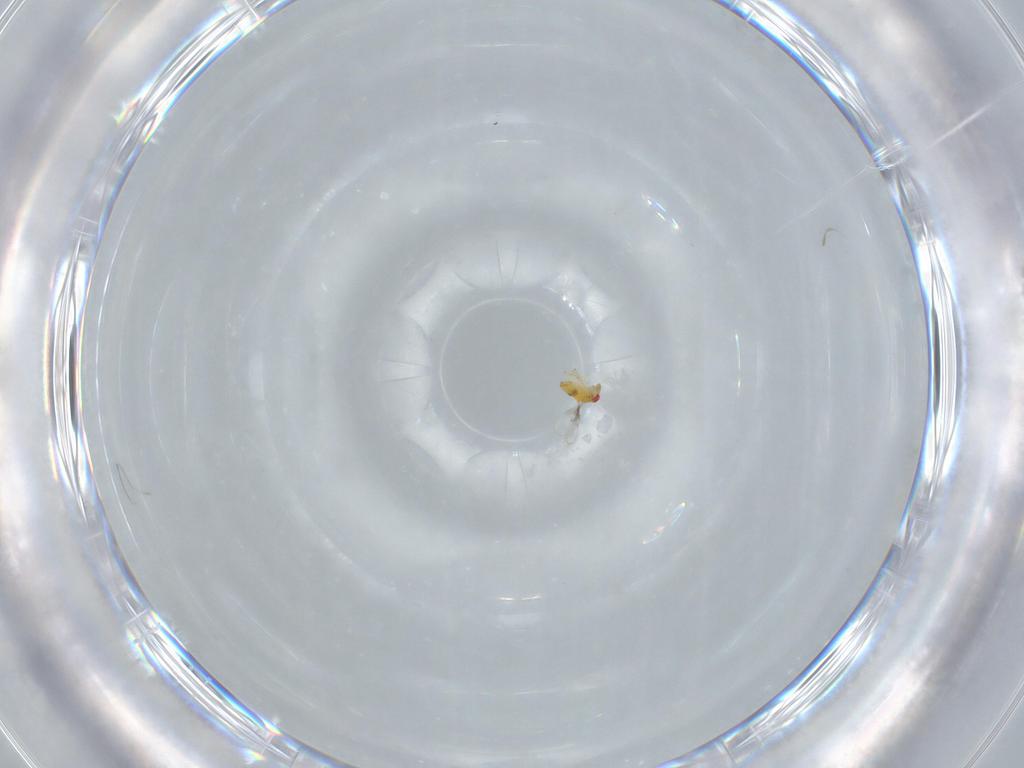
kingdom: Animalia
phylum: Arthropoda
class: Insecta
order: Hymenoptera
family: Trichogrammatidae
